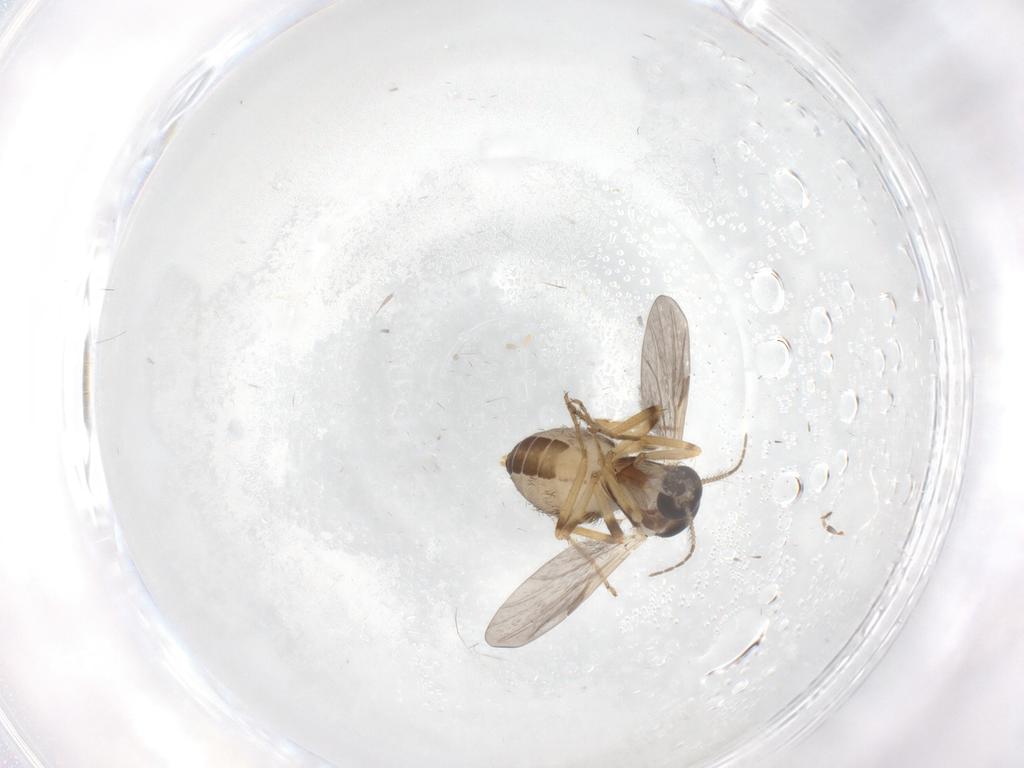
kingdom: Animalia
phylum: Arthropoda
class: Insecta
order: Diptera
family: Ceratopogonidae
